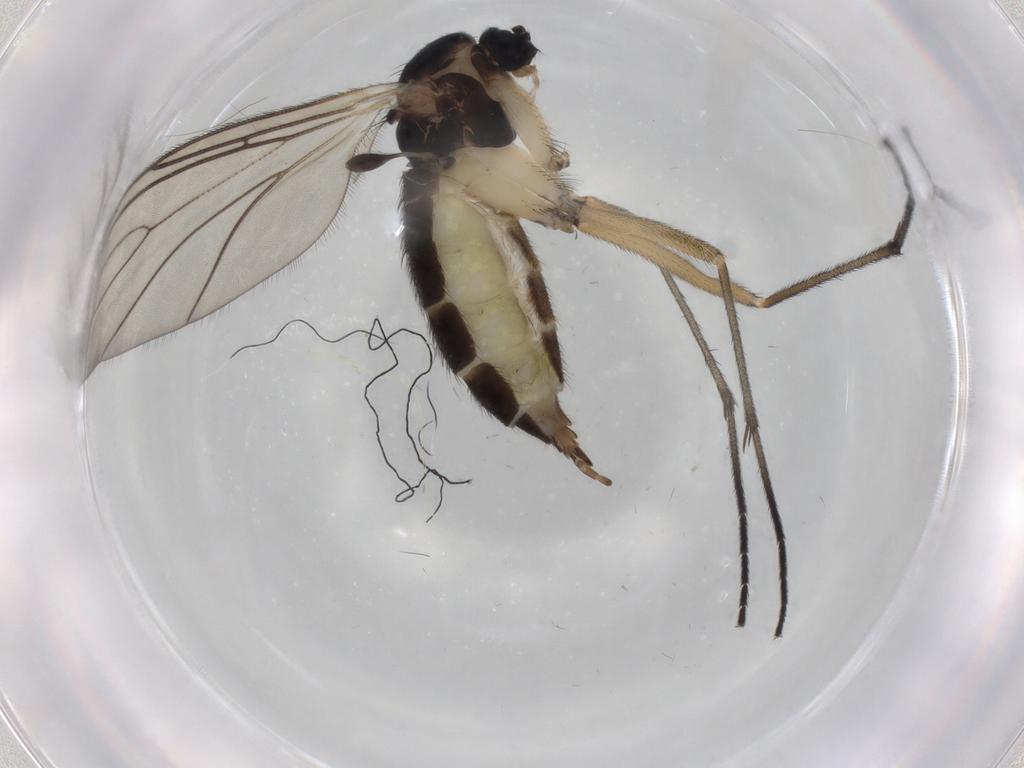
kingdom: Animalia
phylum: Arthropoda
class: Insecta
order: Diptera
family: Sciaridae
